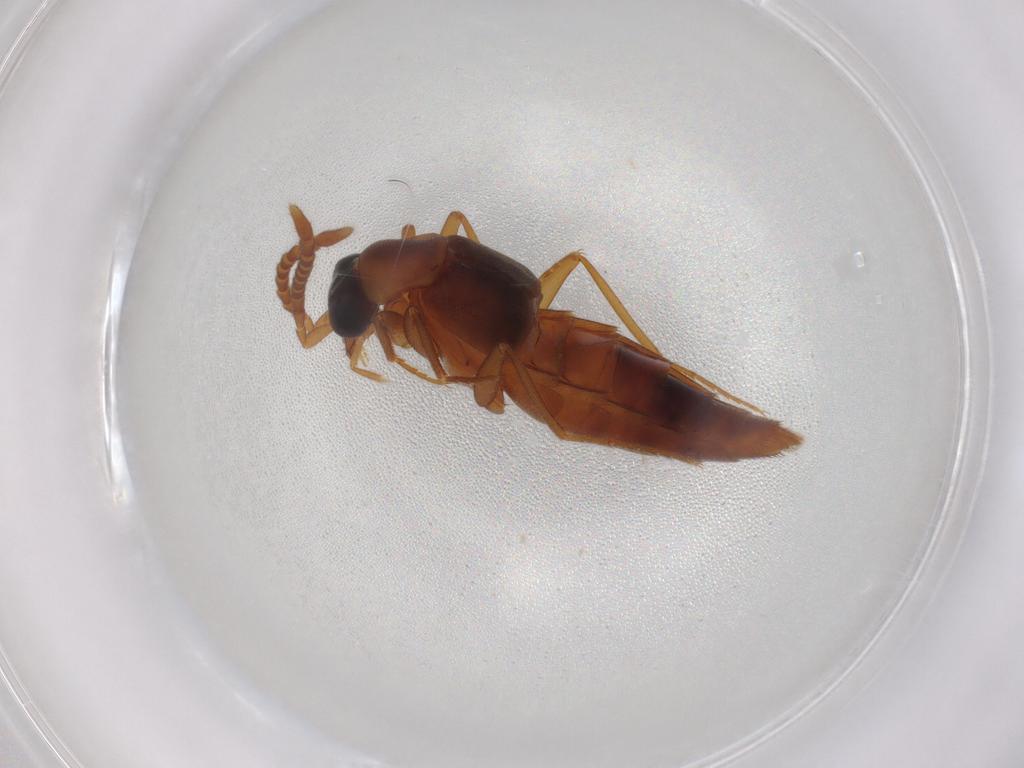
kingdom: Animalia
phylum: Arthropoda
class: Insecta
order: Coleoptera
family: Staphylinidae
